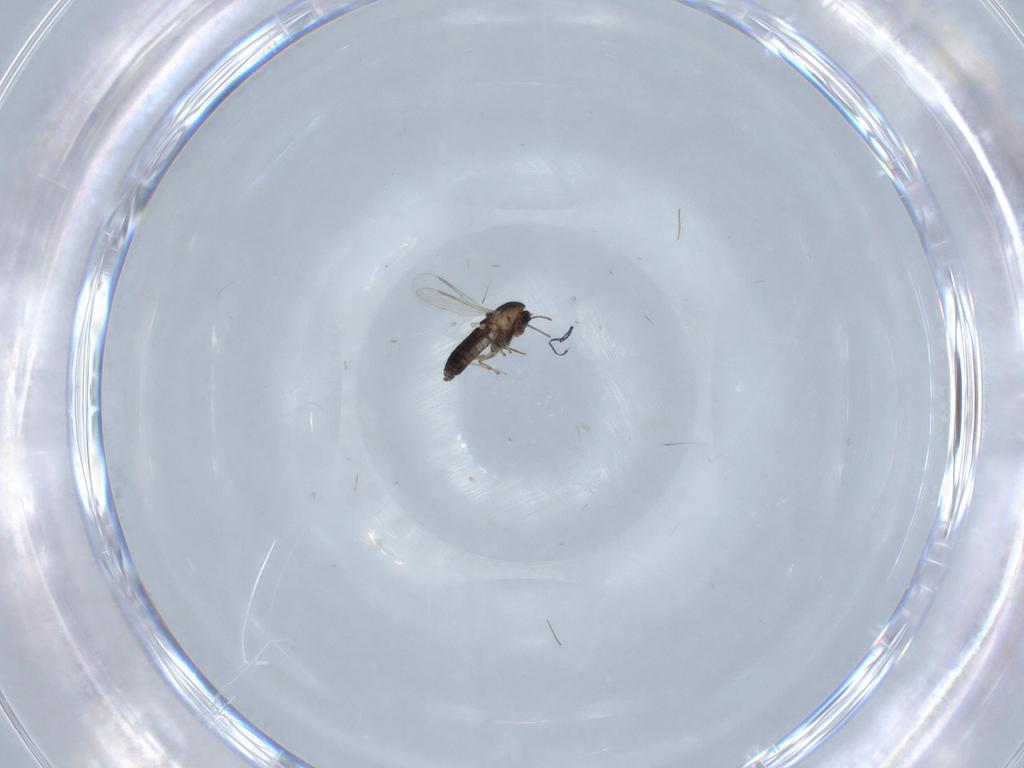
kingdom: Animalia
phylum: Arthropoda
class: Insecta
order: Diptera
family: Chironomidae
